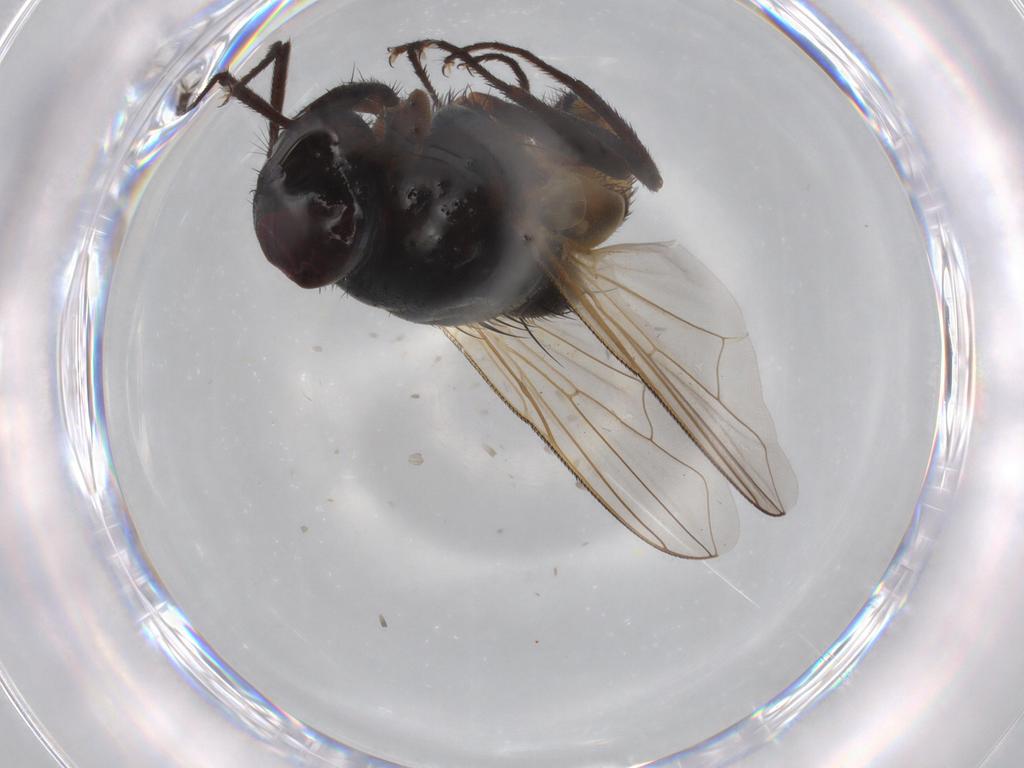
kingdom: Animalia
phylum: Arthropoda
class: Insecta
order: Diptera
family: Muscidae
